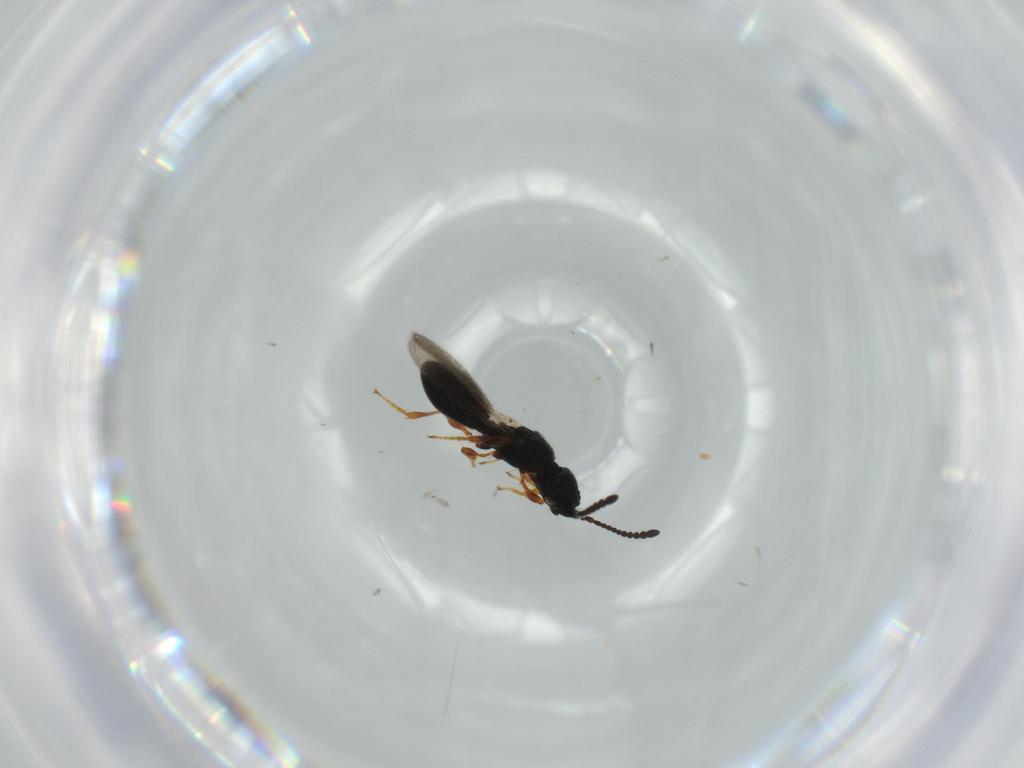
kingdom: Animalia
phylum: Arthropoda
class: Insecta
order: Hymenoptera
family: Diapriidae
